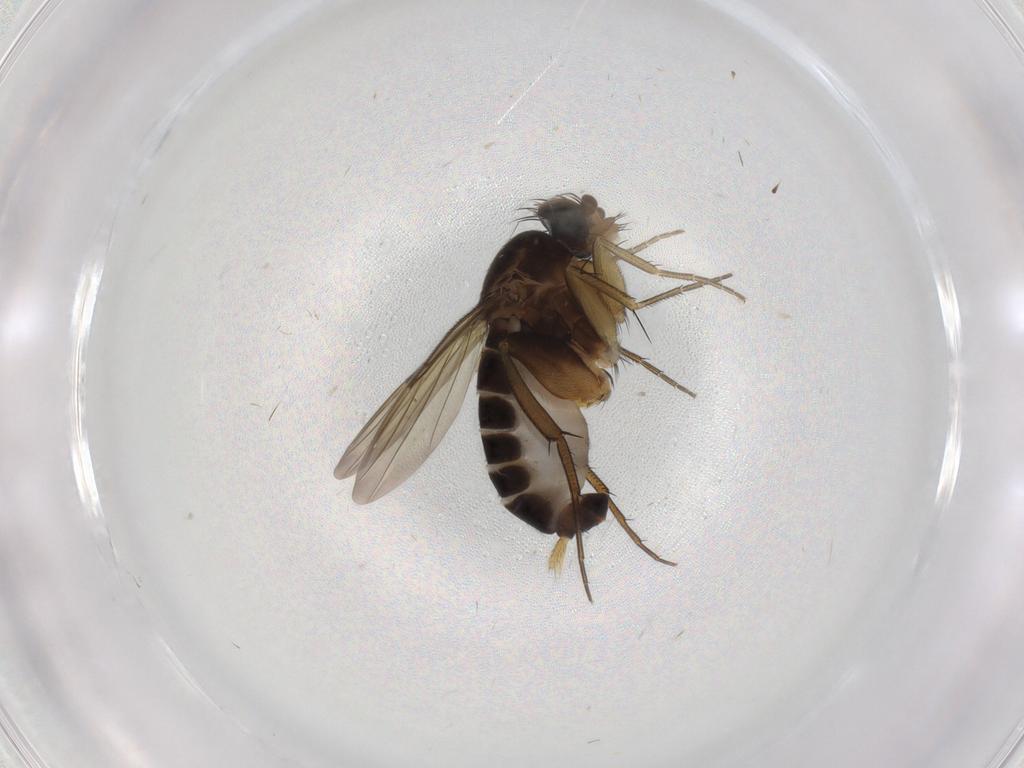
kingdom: Animalia
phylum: Arthropoda
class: Insecta
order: Diptera
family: Phoridae
